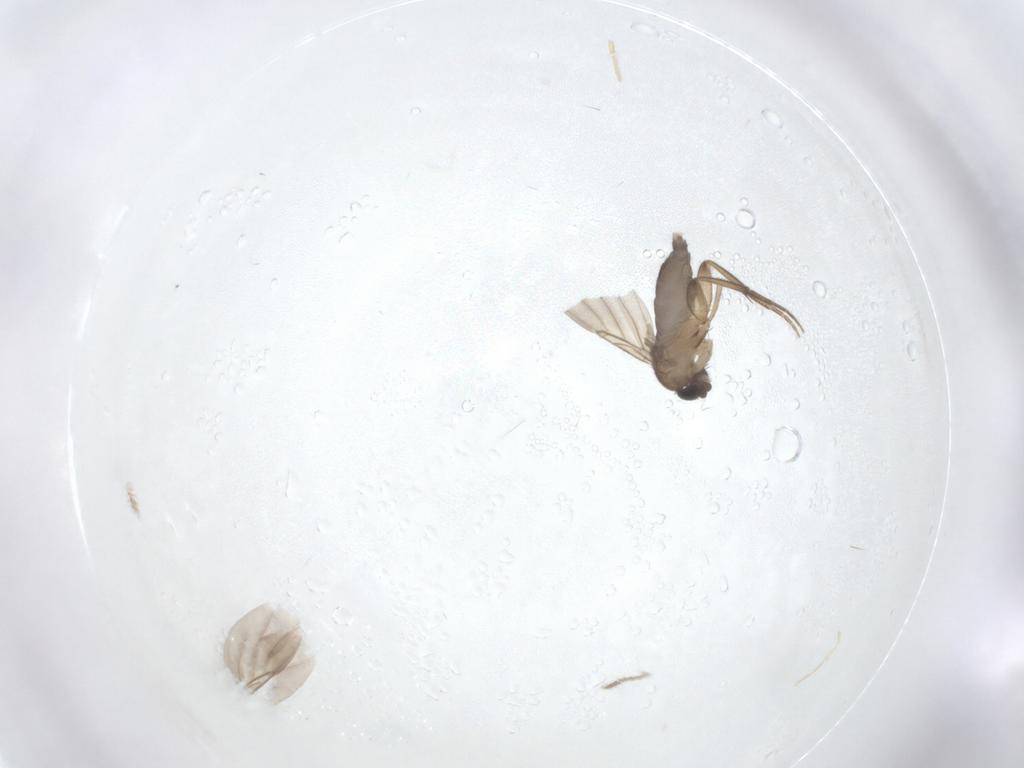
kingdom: Animalia
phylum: Arthropoda
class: Insecta
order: Diptera
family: Phoridae
